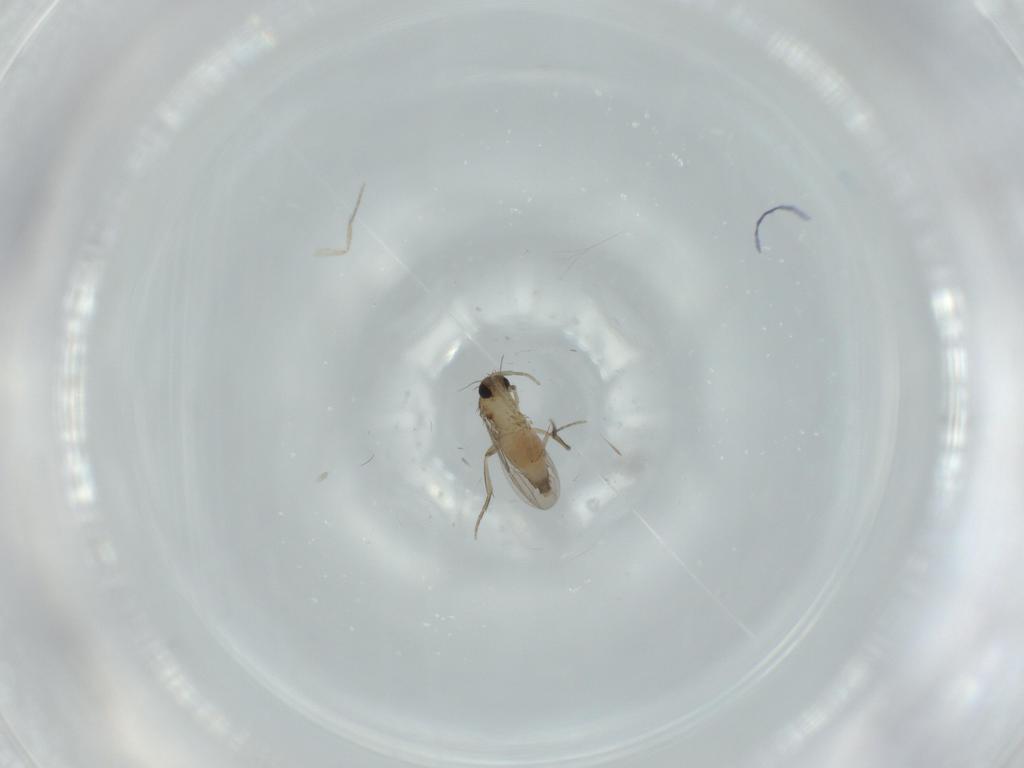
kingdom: Animalia
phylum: Arthropoda
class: Insecta
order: Diptera
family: Phoridae
